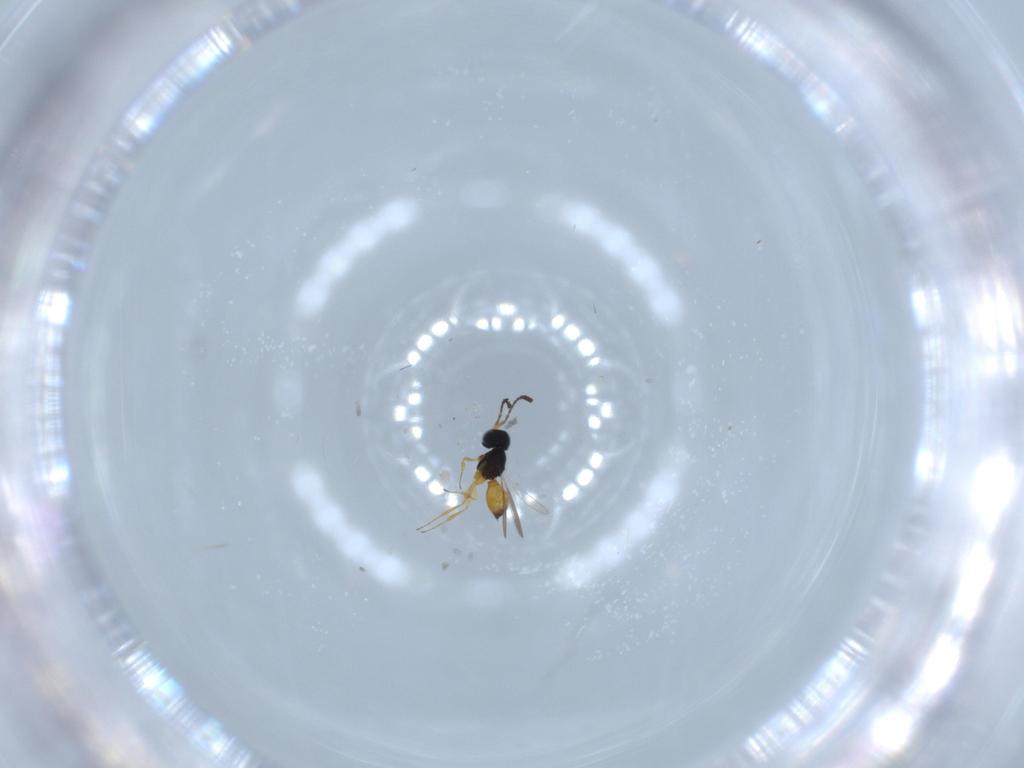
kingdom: Animalia
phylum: Arthropoda
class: Insecta
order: Hymenoptera
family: Scelionidae
